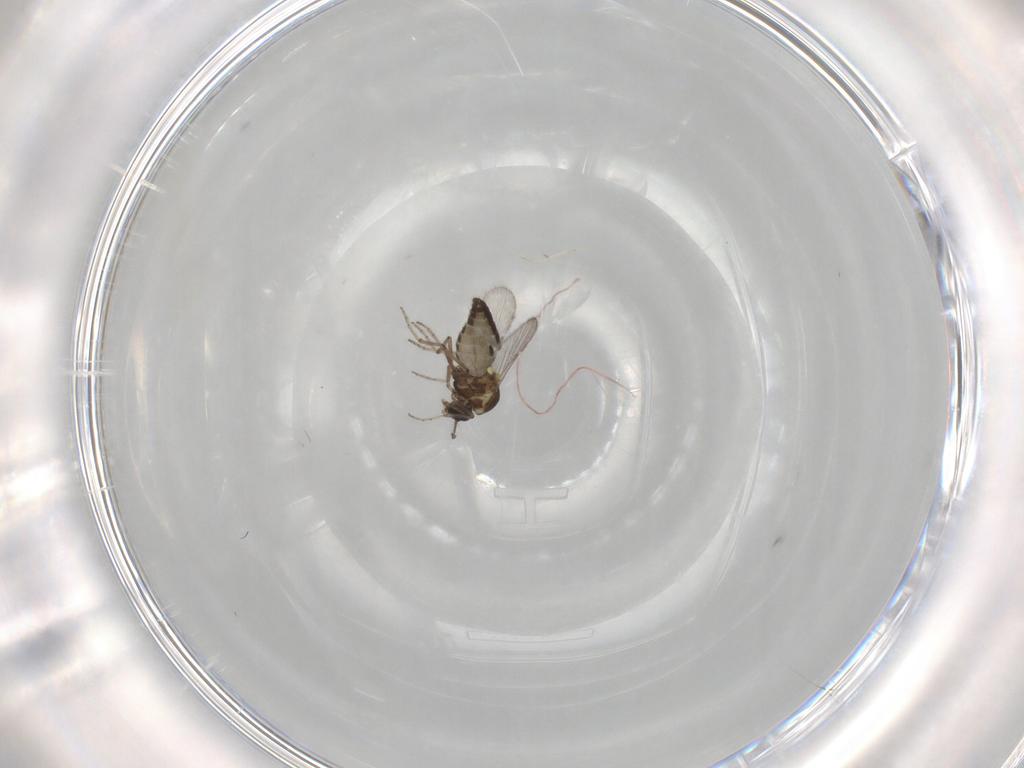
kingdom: Animalia
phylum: Arthropoda
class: Insecta
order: Diptera
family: Ceratopogonidae
